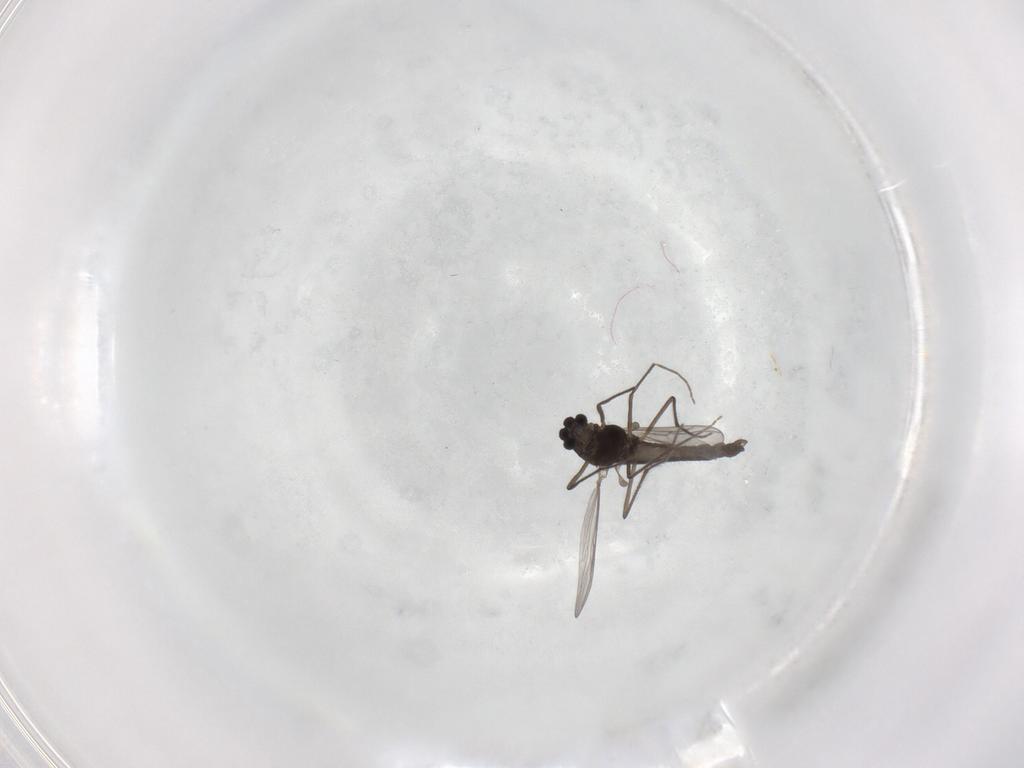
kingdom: Animalia
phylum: Arthropoda
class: Insecta
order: Diptera
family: Chironomidae
